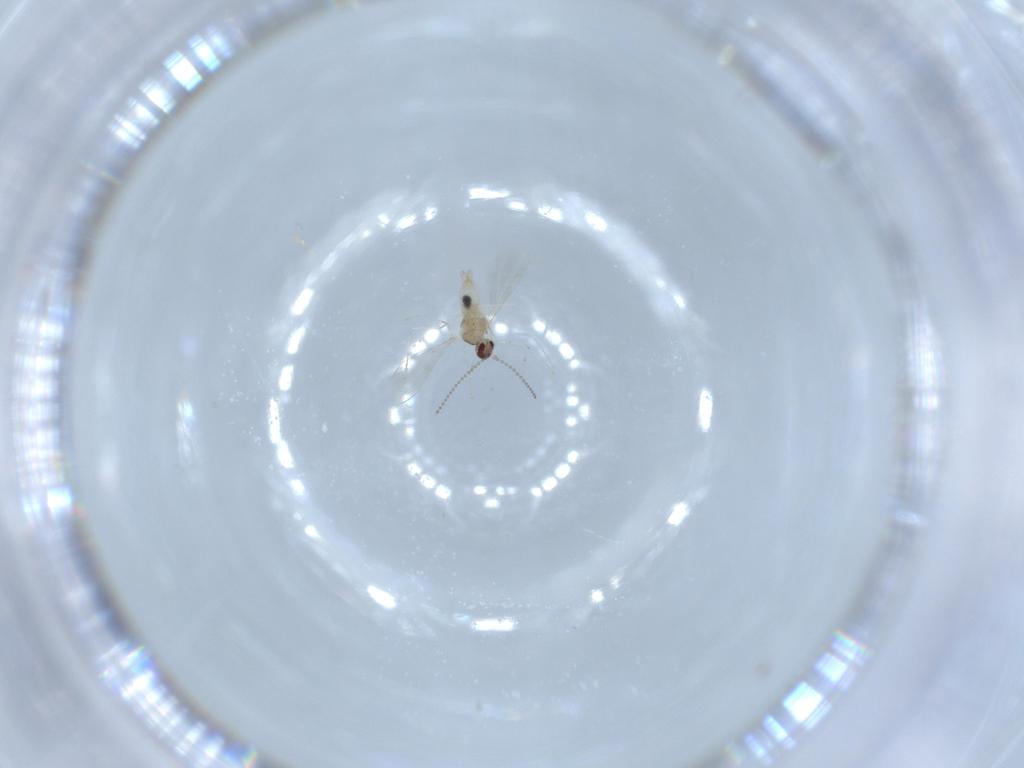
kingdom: Animalia
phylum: Arthropoda
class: Insecta
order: Diptera
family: Cecidomyiidae
